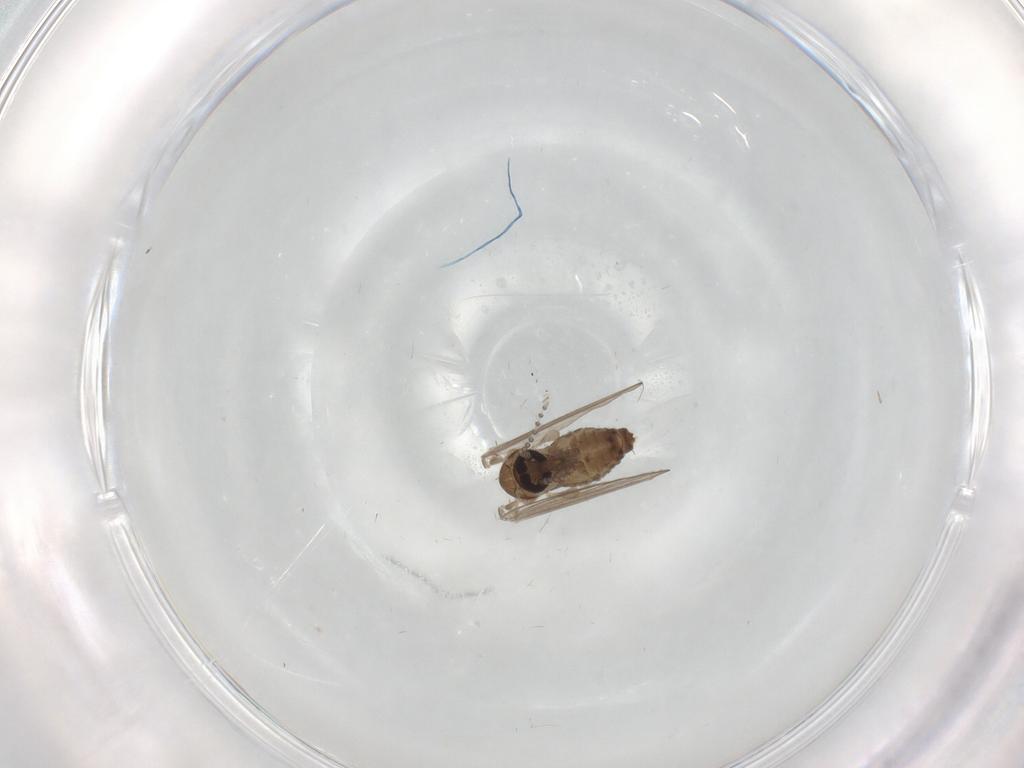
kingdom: Animalia
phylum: Arthropoda
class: Insecta
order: Diptera
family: Psychodidae
